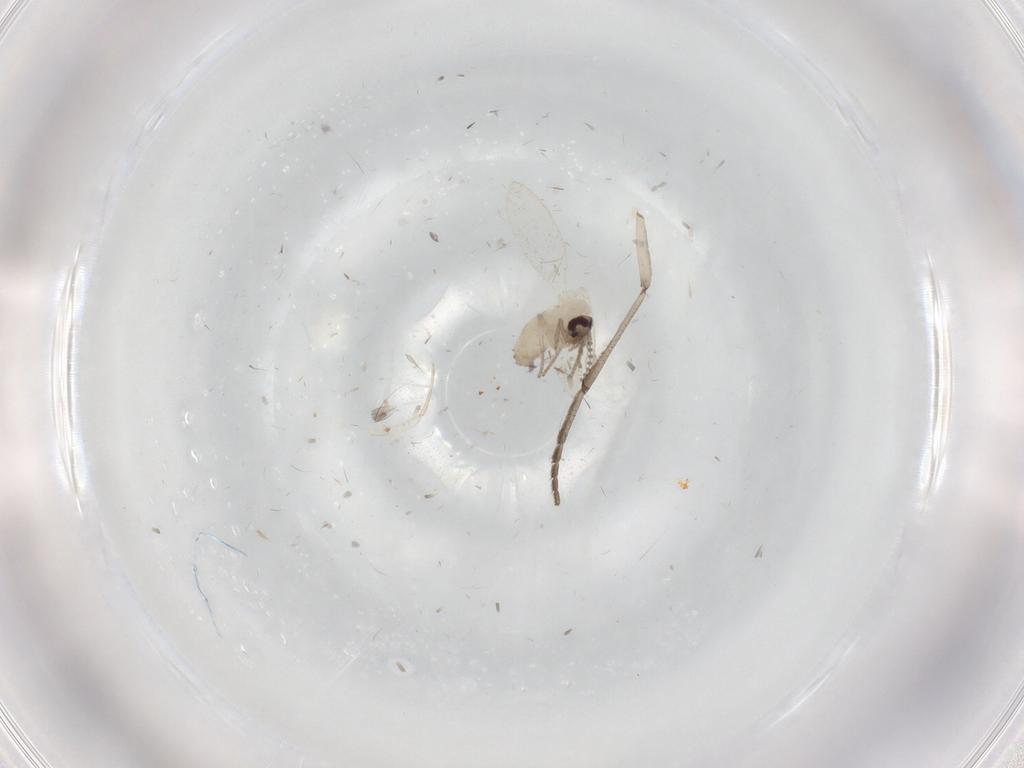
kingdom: Animalia
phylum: Arthropoda
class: Insecta
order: Diptera
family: Psychodidae
